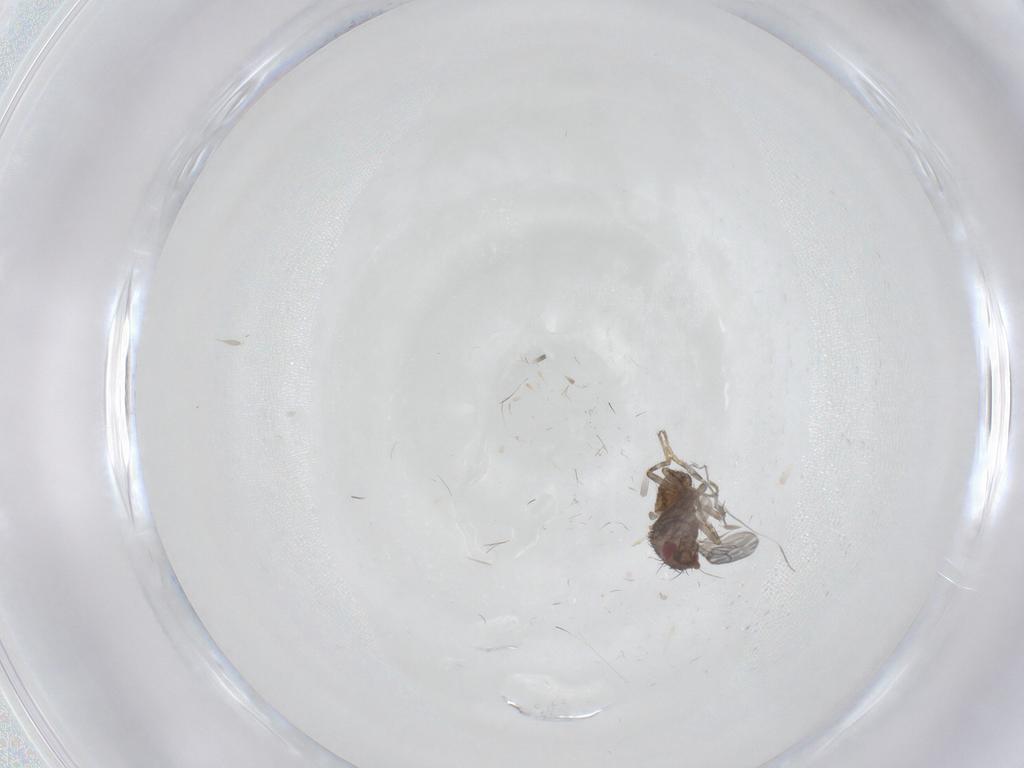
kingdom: Animalia
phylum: Arthropoda
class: Insecta
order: Diptera
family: Sphaeroceridae
